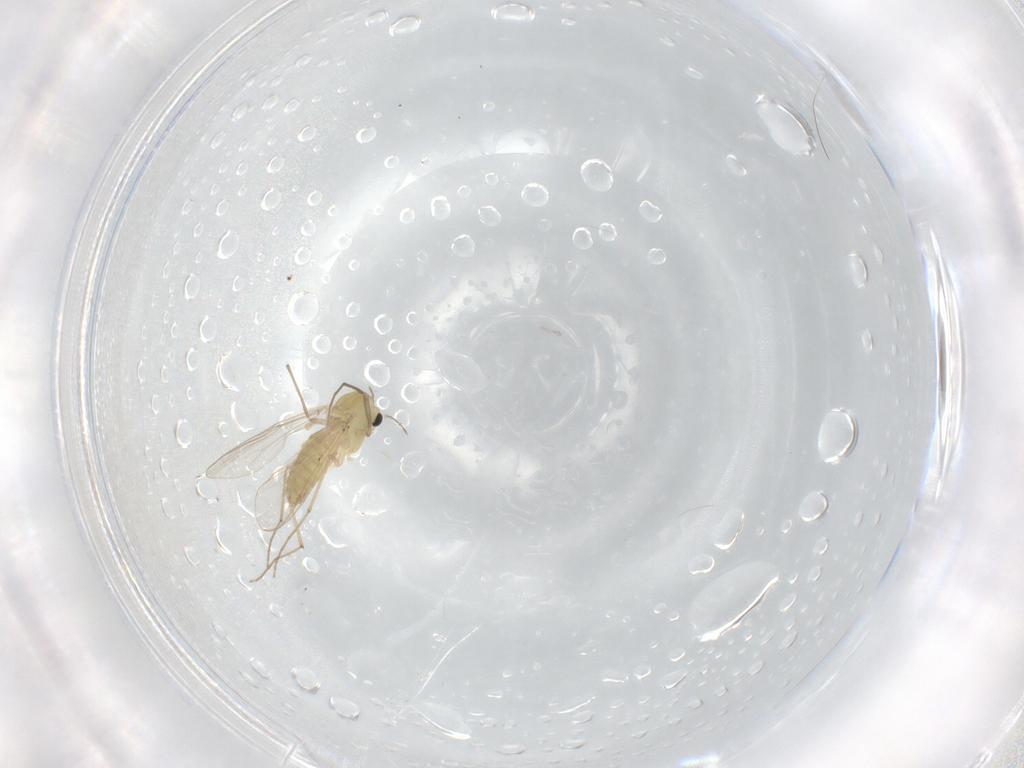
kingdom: Animalia
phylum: Arthropoda
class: Insecta
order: Diptera
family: Chironomidae
